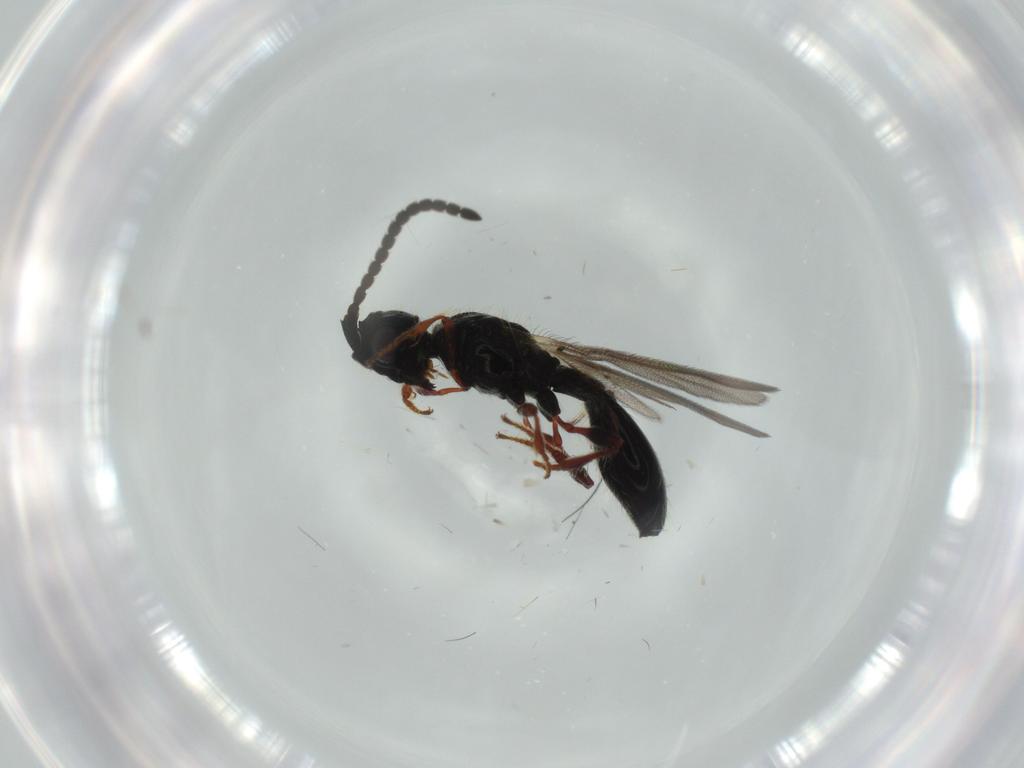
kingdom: Animalia
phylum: Arthropoda
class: Insecta
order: Hymenoptera
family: Diapriidae
